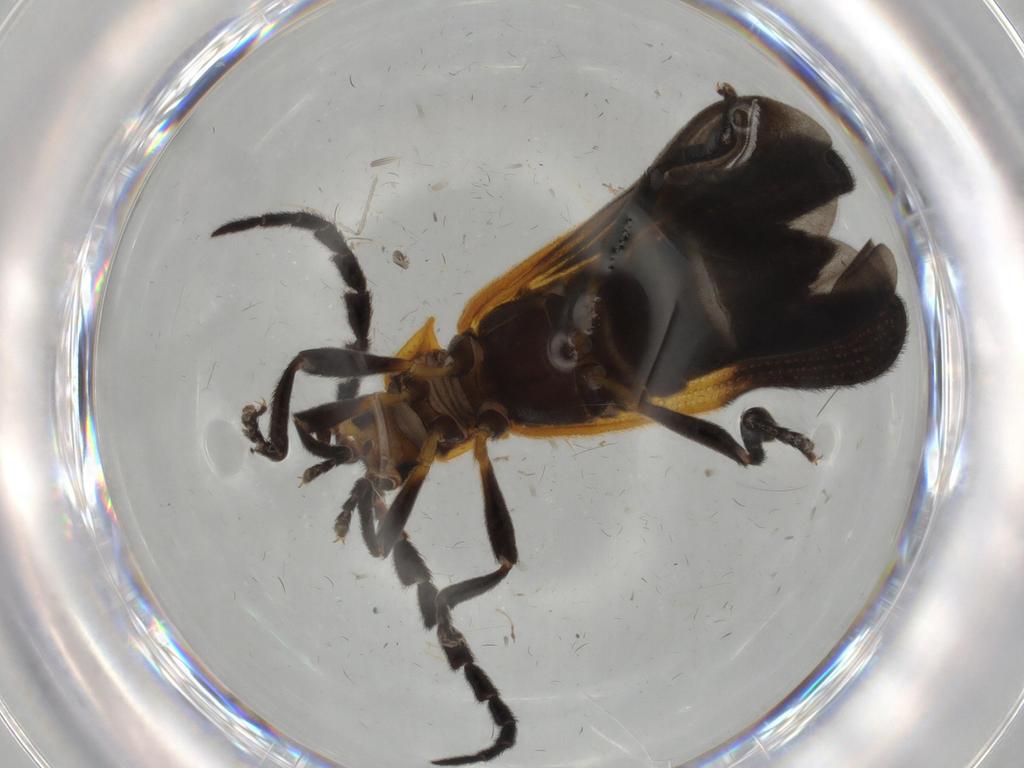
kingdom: Animalia
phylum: Arthropoda
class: Insecta
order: Coleoptera
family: Lycidae
